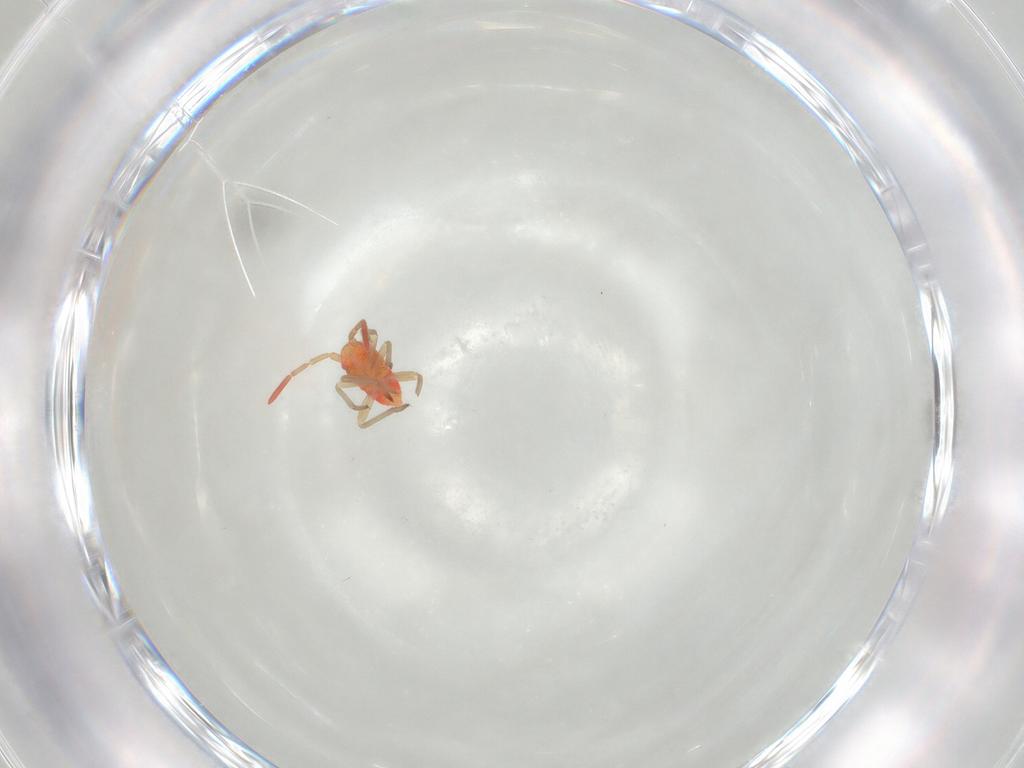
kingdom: Animalia
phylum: Arthropoda
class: Insecta
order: Hemiptera
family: Miridae
